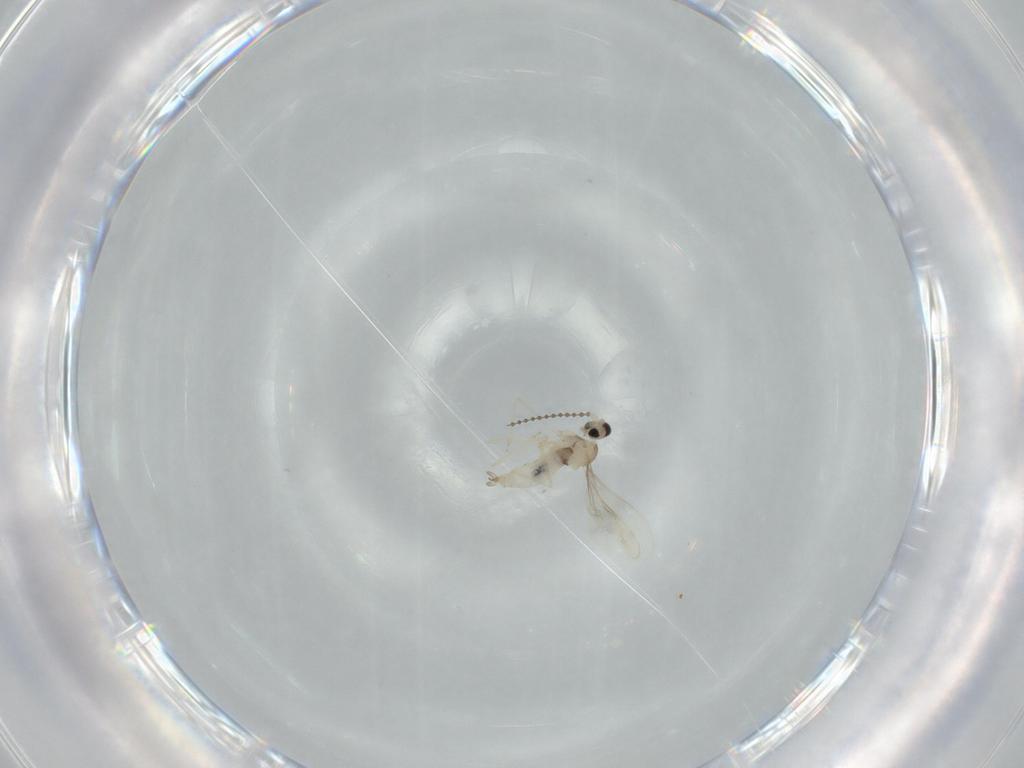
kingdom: Animalia
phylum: Arthropoda
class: Insecta
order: Diptera
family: Cecidomyiidae
